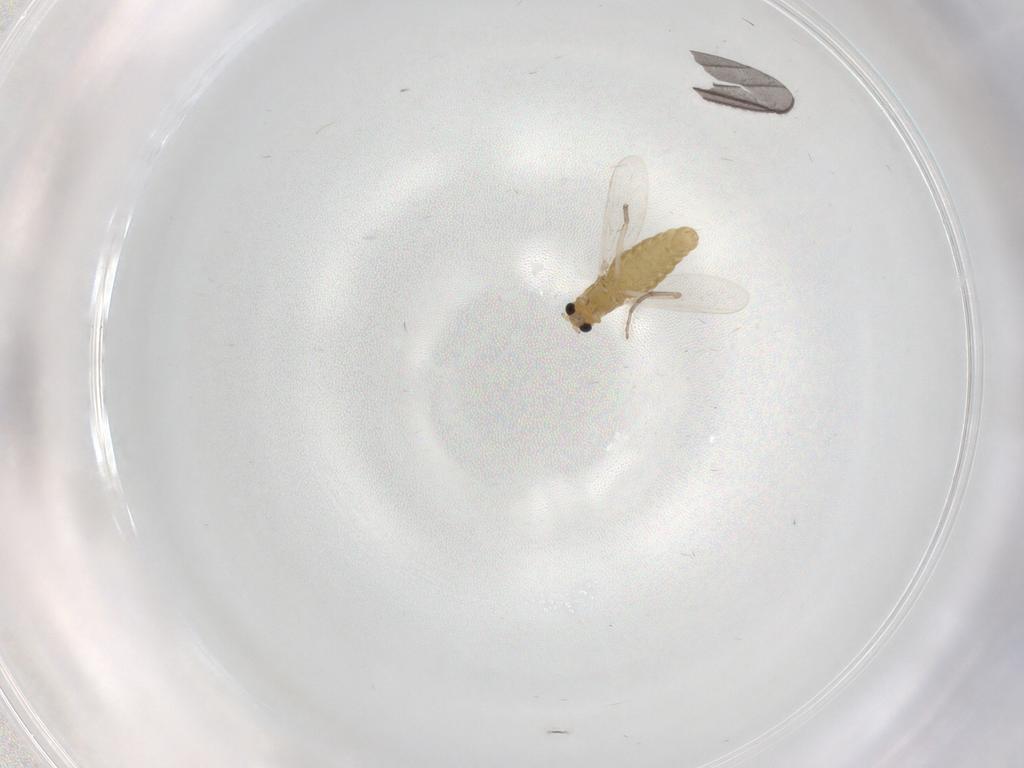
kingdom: Animalia
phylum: Arthropoda
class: Insecta
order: Diptera
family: Chironomidae
